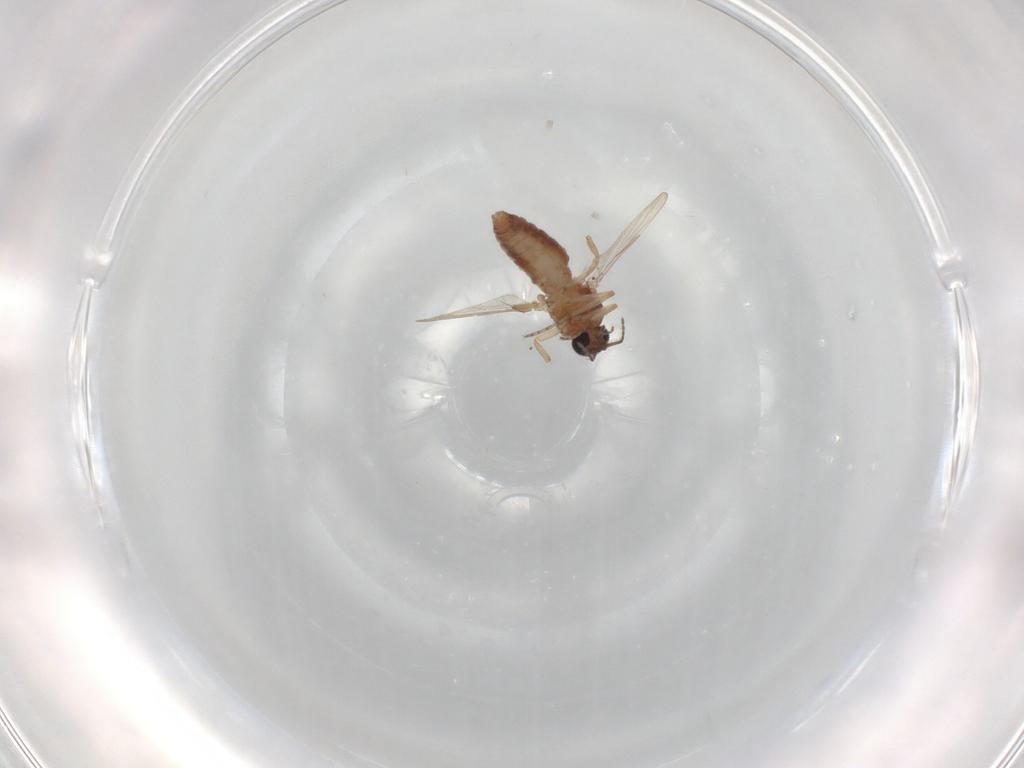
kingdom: Animalia
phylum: Arthropoda
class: Insecta
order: Diptera
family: Ceratopogonidae
